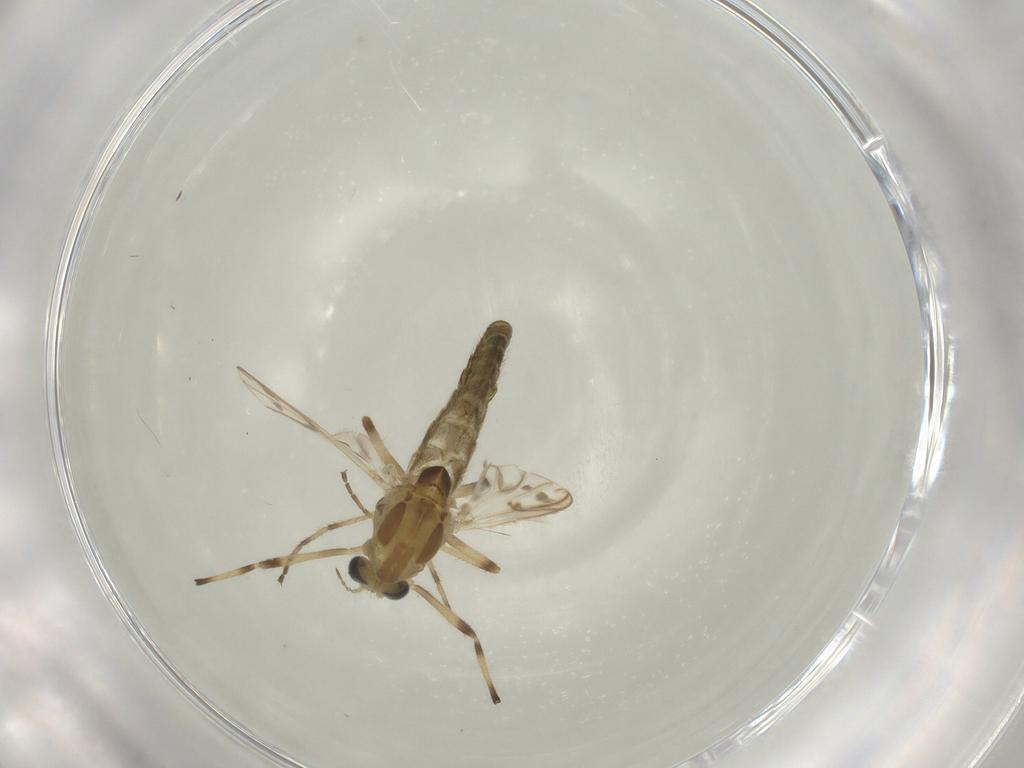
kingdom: Animalia
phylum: Arthropoda
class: Insecta
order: Diptera
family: Chironomidae
